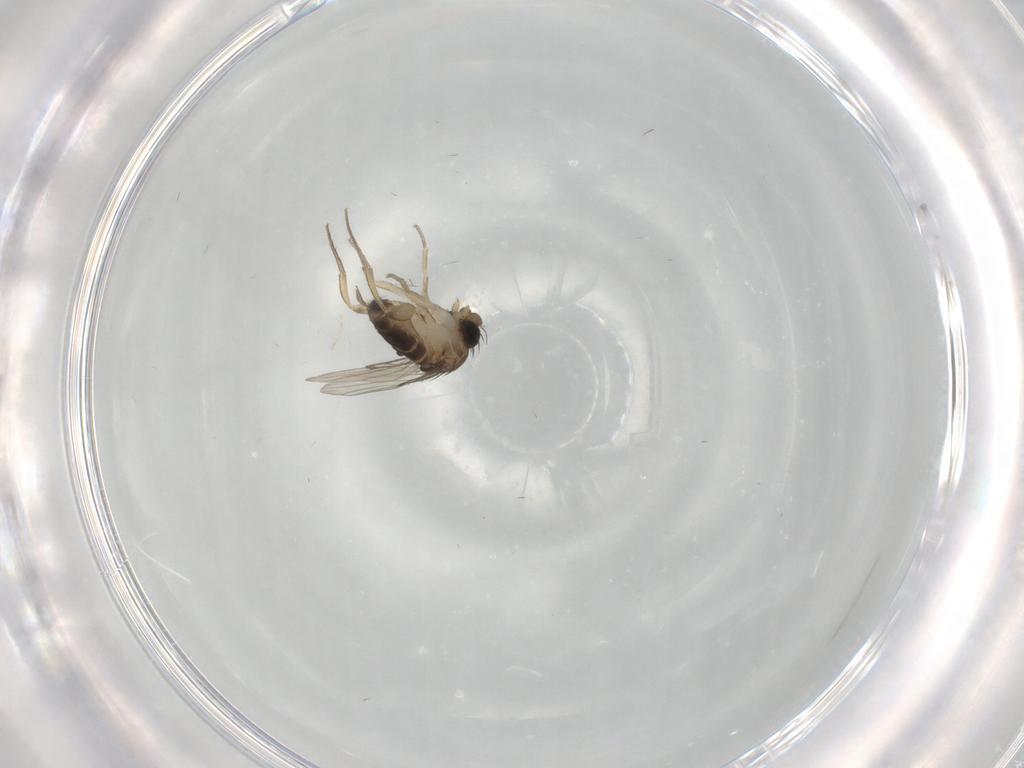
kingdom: Animalia
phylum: Arthropoda
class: Insecta
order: Diptera
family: Phoridae
